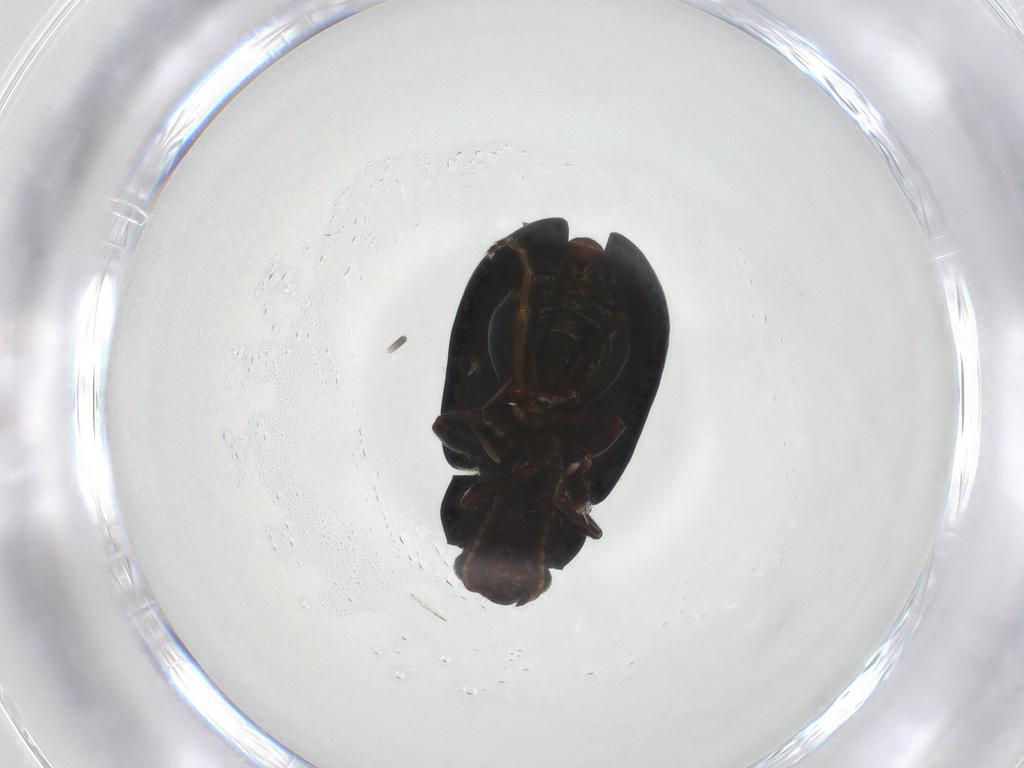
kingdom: Animalia
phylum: Arthropoda
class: Insecta
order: Coleoptera
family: Chrysomelidae
